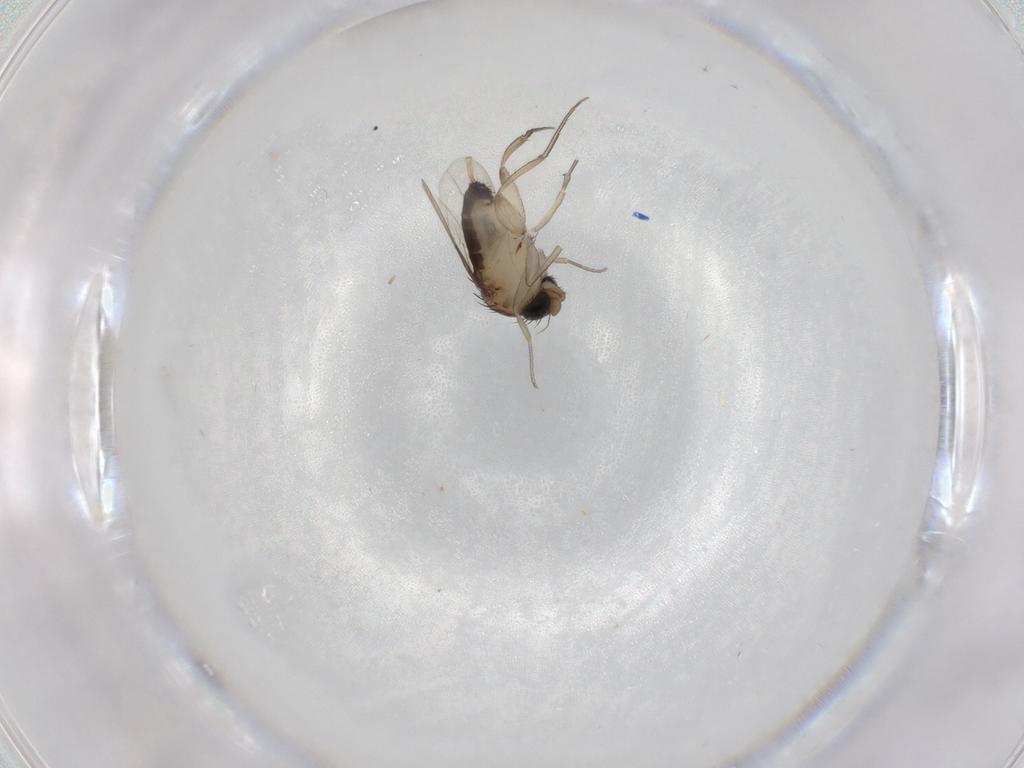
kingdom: Animalia
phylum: Arthropoda
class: Insecta
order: Diptera
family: Phoridae
